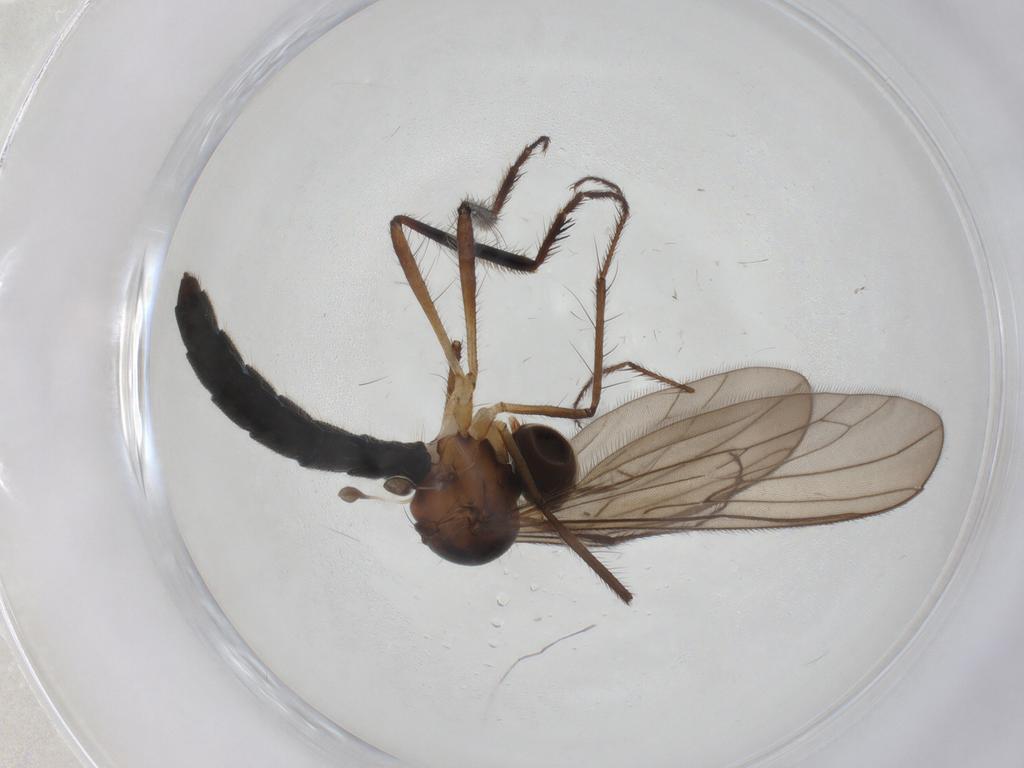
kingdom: Animalia
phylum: Arthropoda
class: Insecta
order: Diptera
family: Hybotidae
